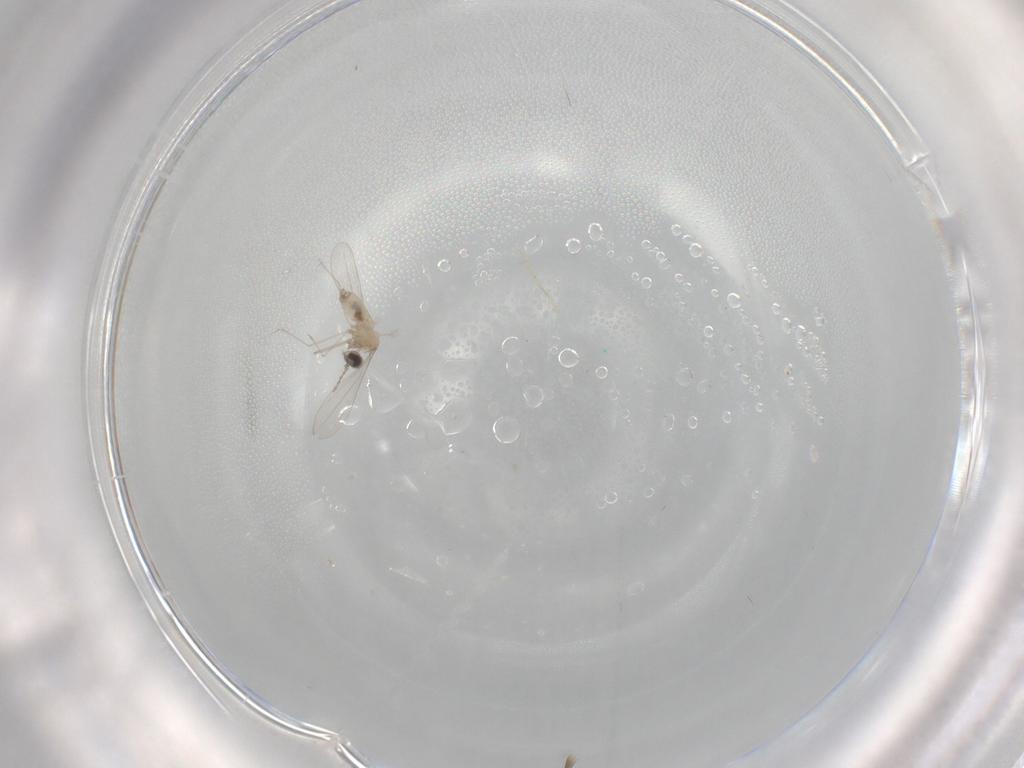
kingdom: Animalia
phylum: Arthropoda
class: Insecta
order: Diptera
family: Cecidomyiidae
